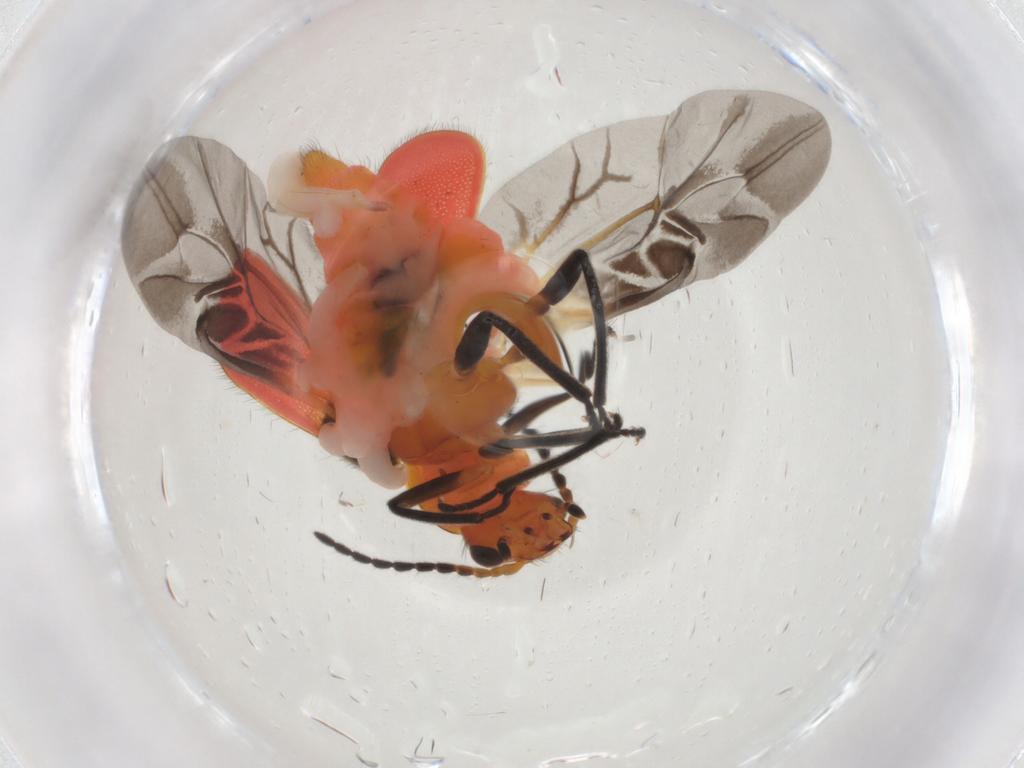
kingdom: Animalia
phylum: Arthropoda
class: Insecta
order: Coleoptera
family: Melyridae
